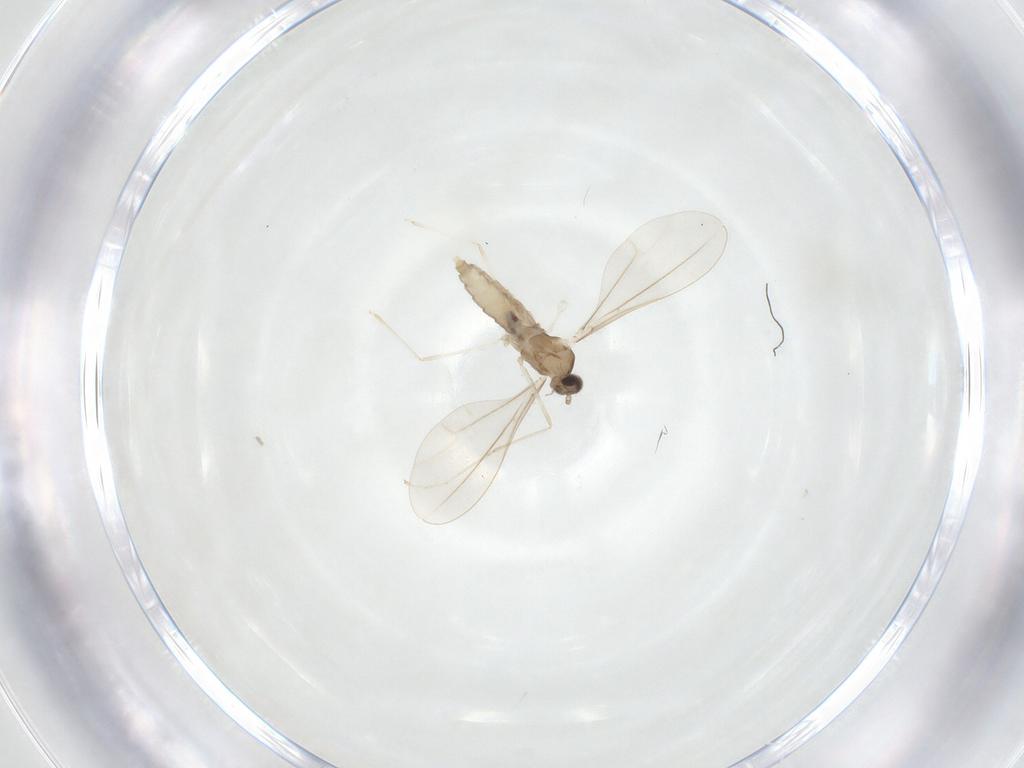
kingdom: Animalia
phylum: Arthropoda
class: Insecta
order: Diptera
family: Cecidomyiidae
